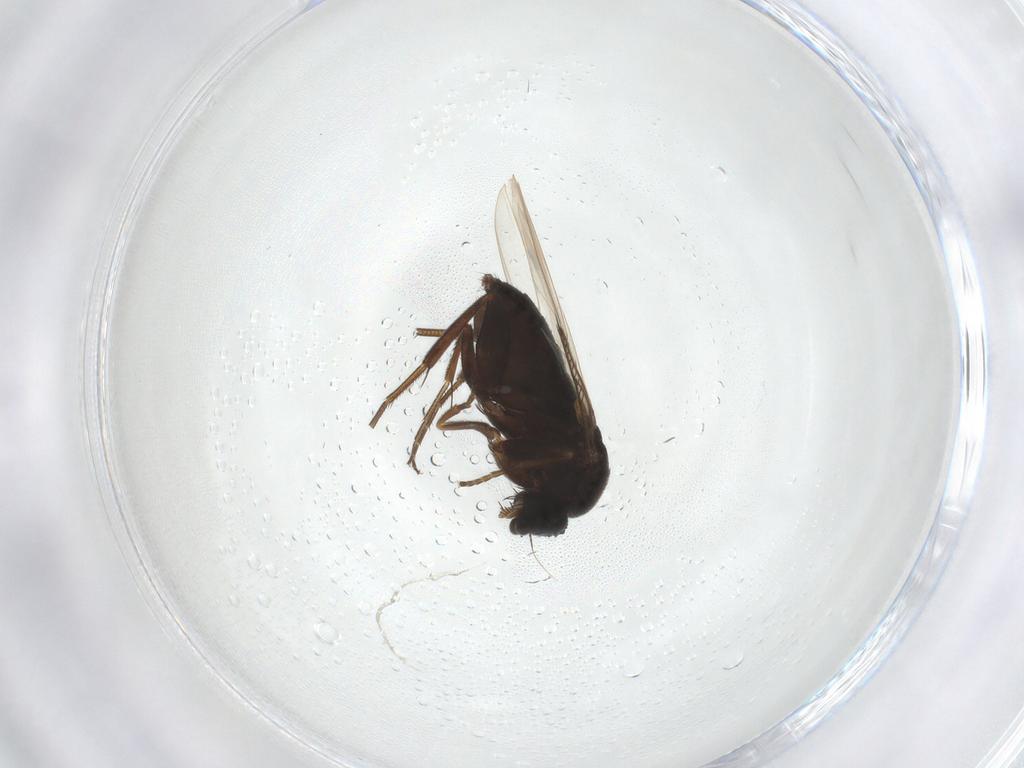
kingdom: Animalia
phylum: Arthropoda
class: Insecta
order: Diptera
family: Phoridae
